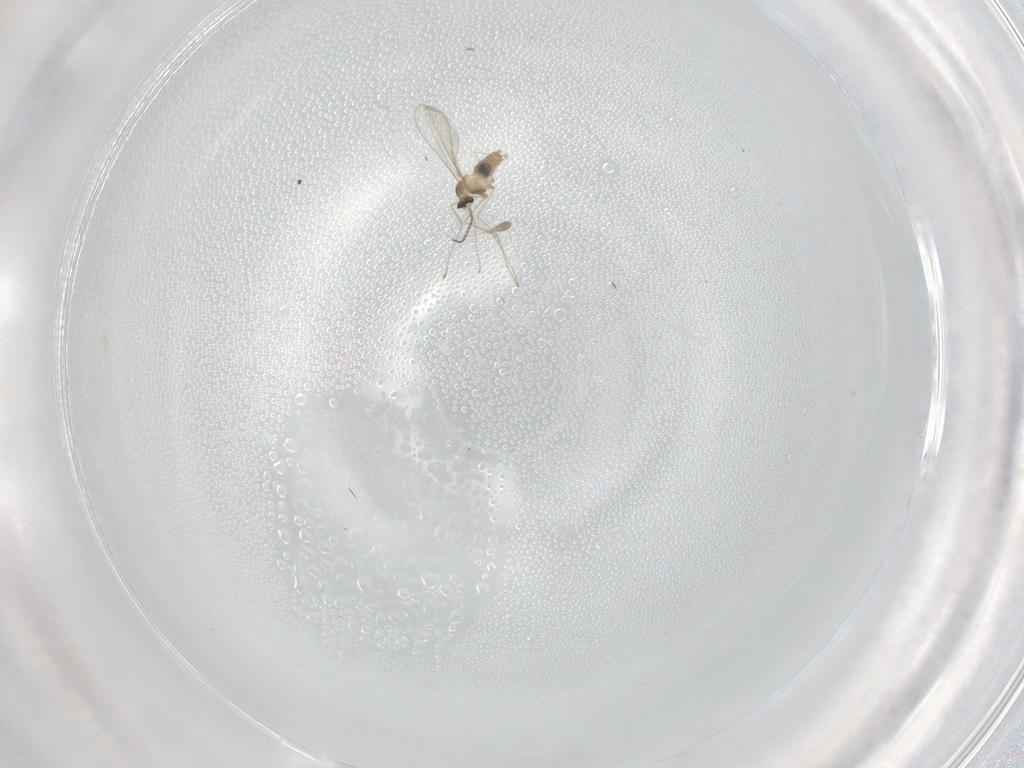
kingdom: Animalia
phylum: Arthropoda
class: Insecta
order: Diptera
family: Cecidomyiidae
